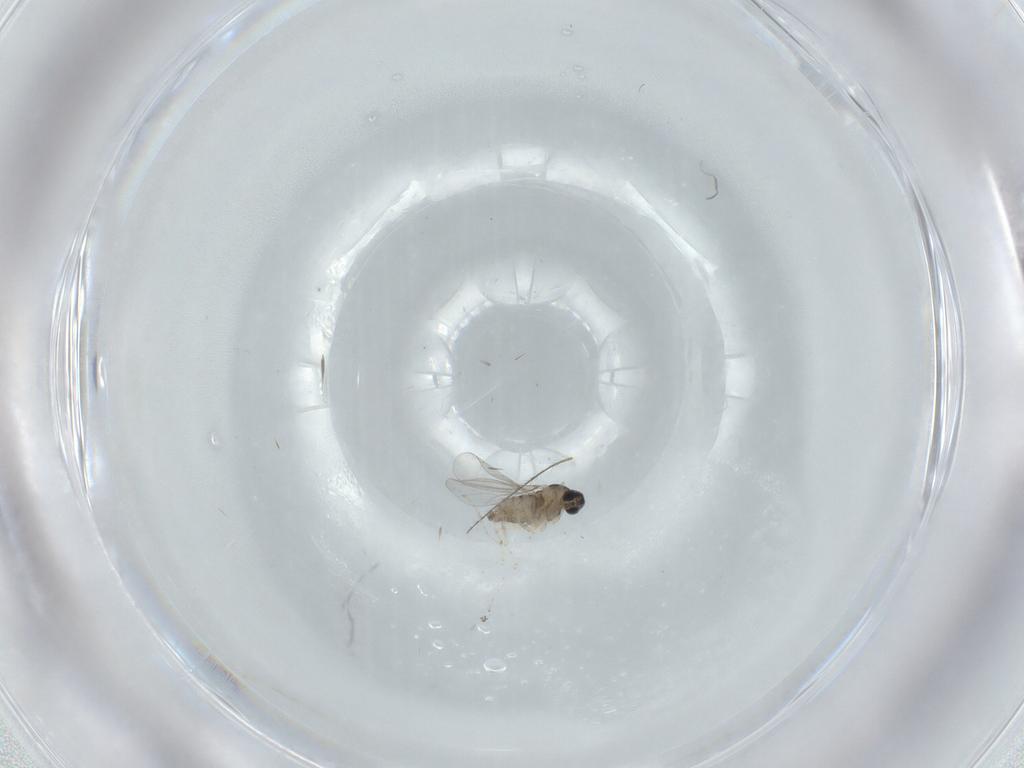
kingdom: Animalia
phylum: Arthropoda
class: Insecta
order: Diptera
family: Cecidomyiidae
